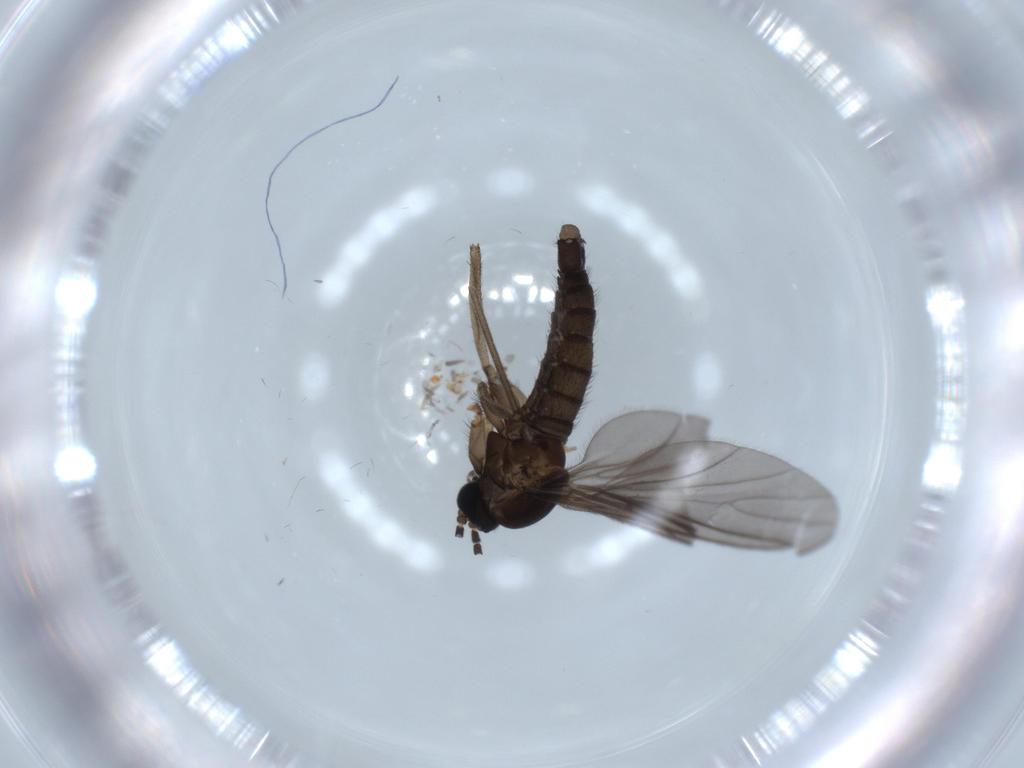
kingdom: Animalia
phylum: Arthropoda
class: Insecta
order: Diptera
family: Sciaridae
